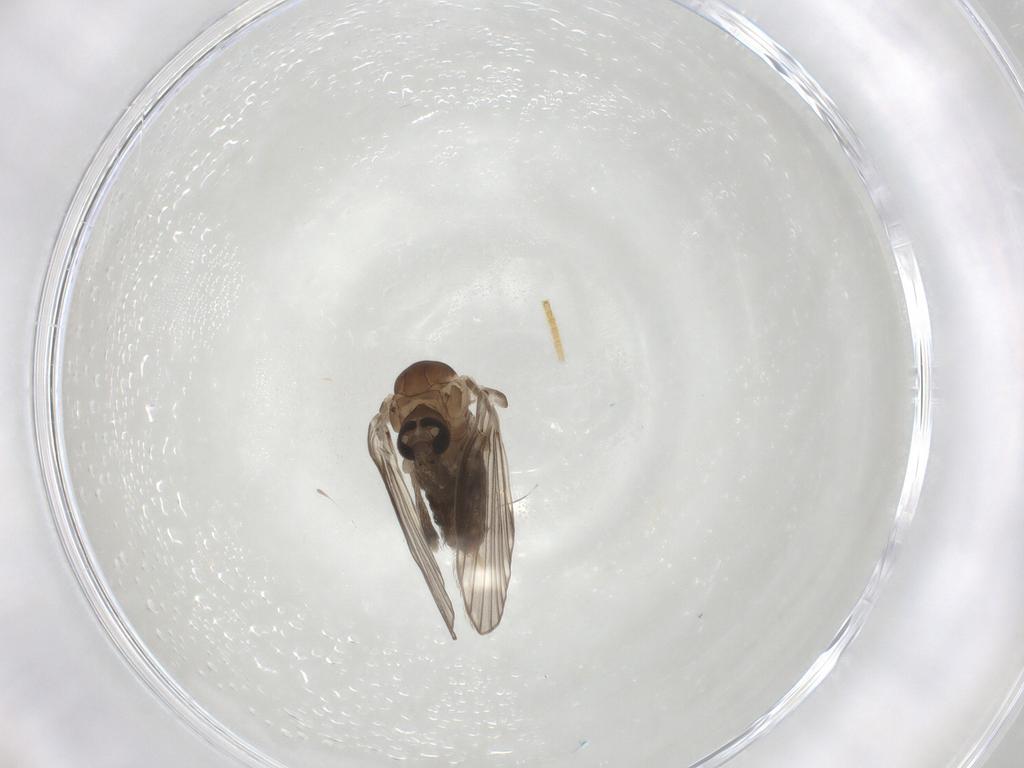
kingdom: Animalia
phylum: Arthropoda
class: Insecta
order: Diptera
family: Psychodidae
